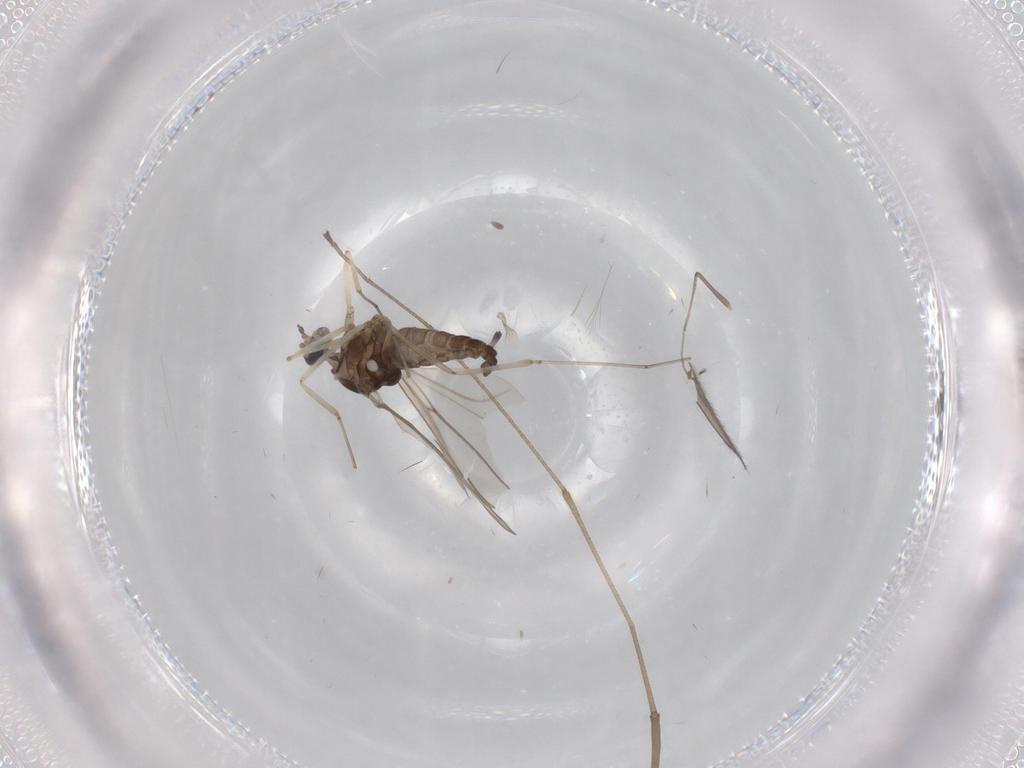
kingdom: Animalia
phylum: Arthropoda
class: Insecta
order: Diptera
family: Limoniidae
